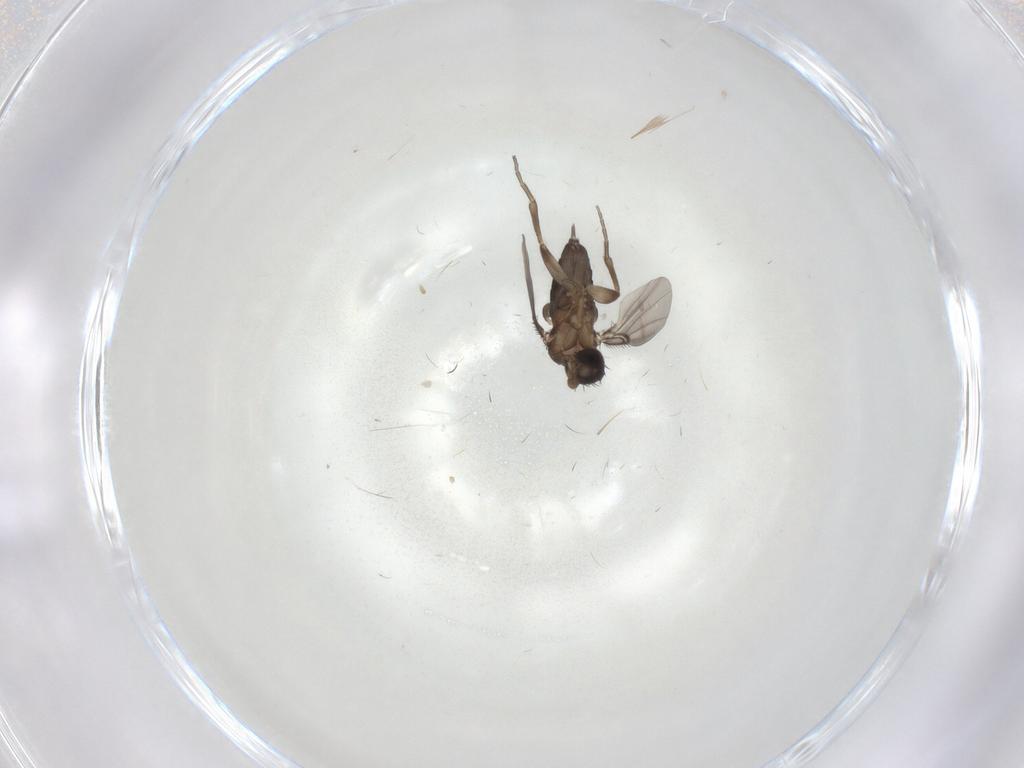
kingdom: Animalia
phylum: Arthropoda
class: Insecta
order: Diptera
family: Phoridae
